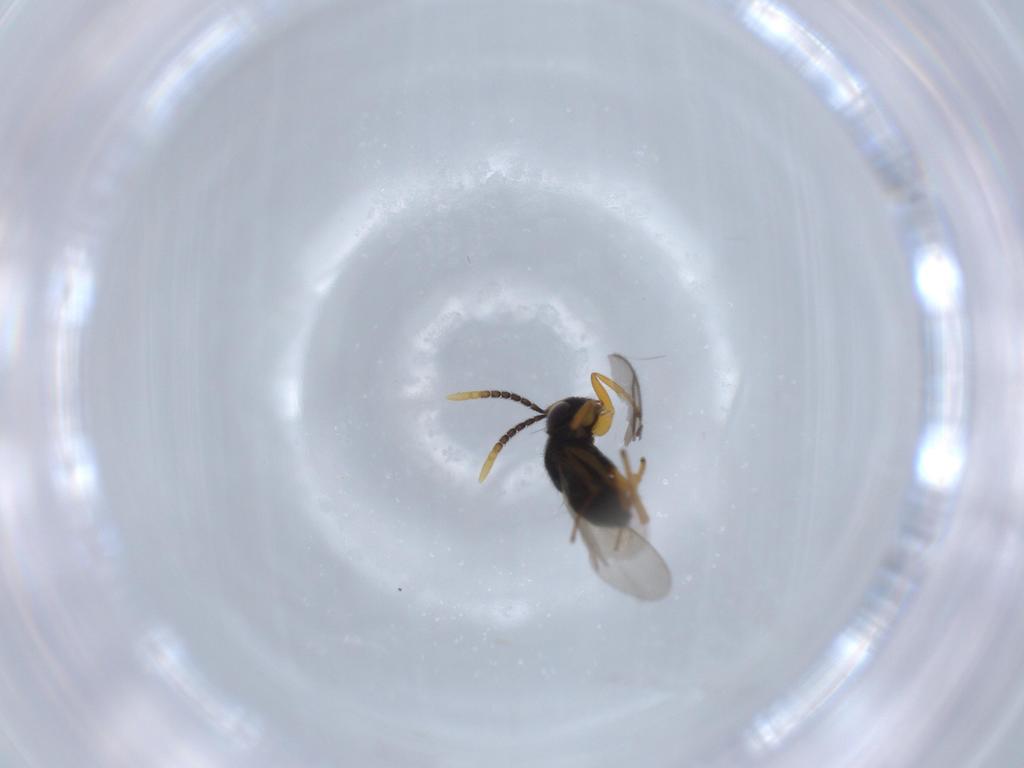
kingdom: Animalia
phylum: Arthropoda
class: Insecta
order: Hymenoptera
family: Encyrtidae
